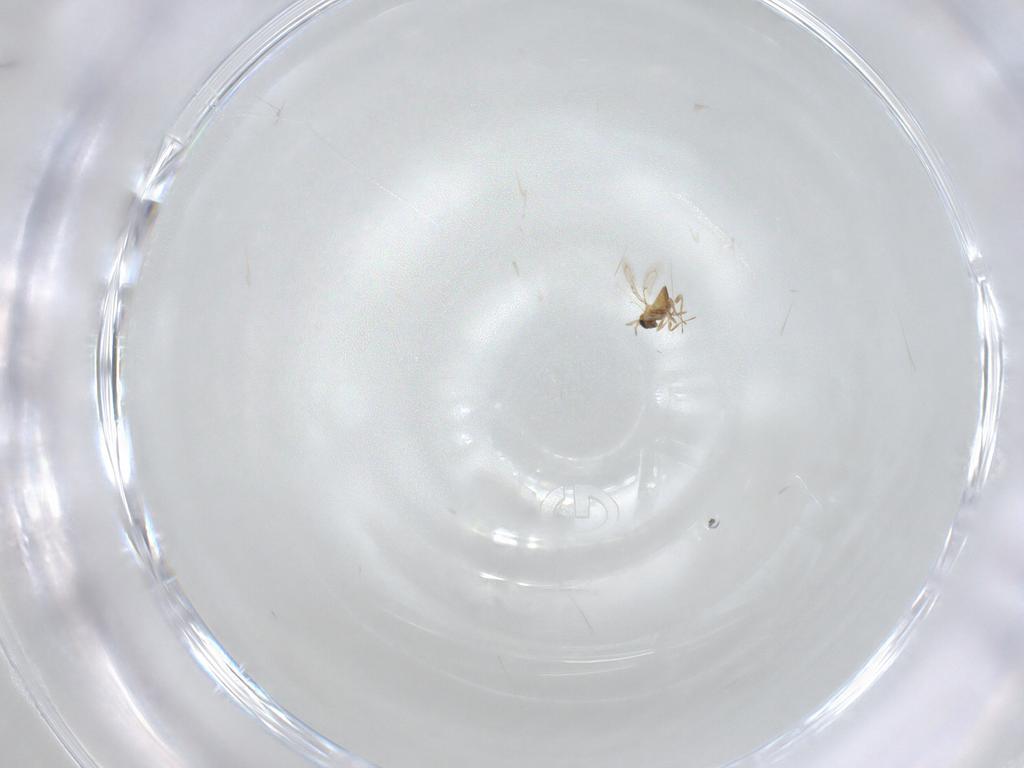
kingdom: Animalia
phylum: Arthropoda
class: Insecta
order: Hymenoptera
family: Trichogrammatidae
